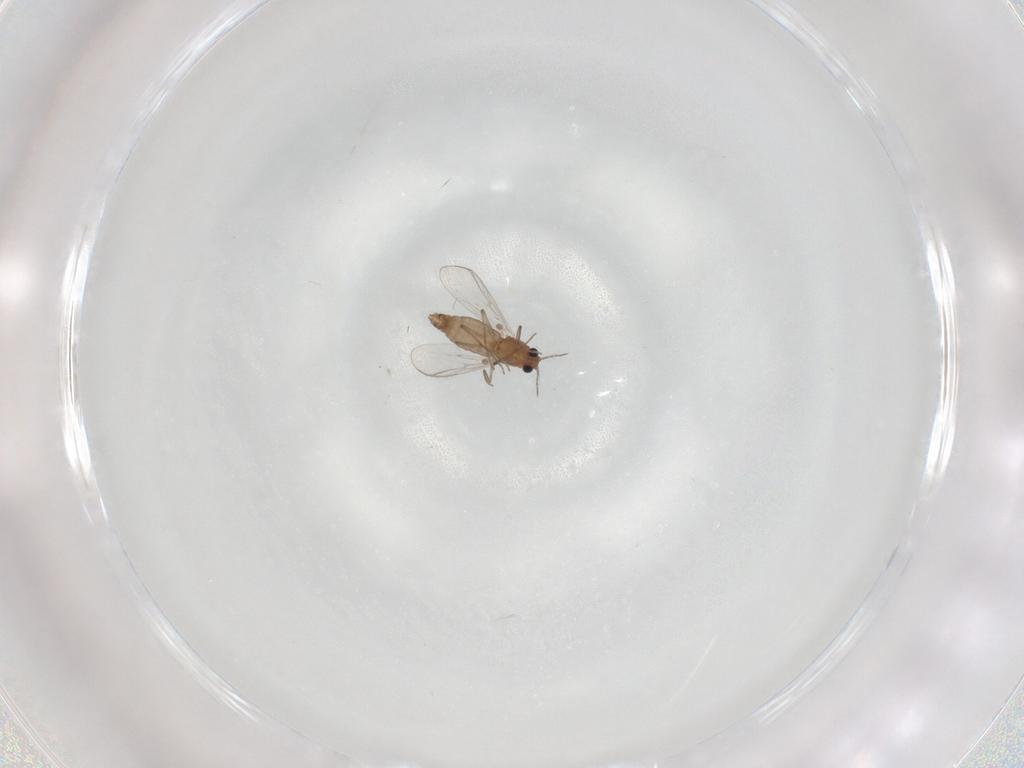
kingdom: Animalia
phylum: Arthropoda
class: Insecta
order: Diptera
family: Chironomidae
